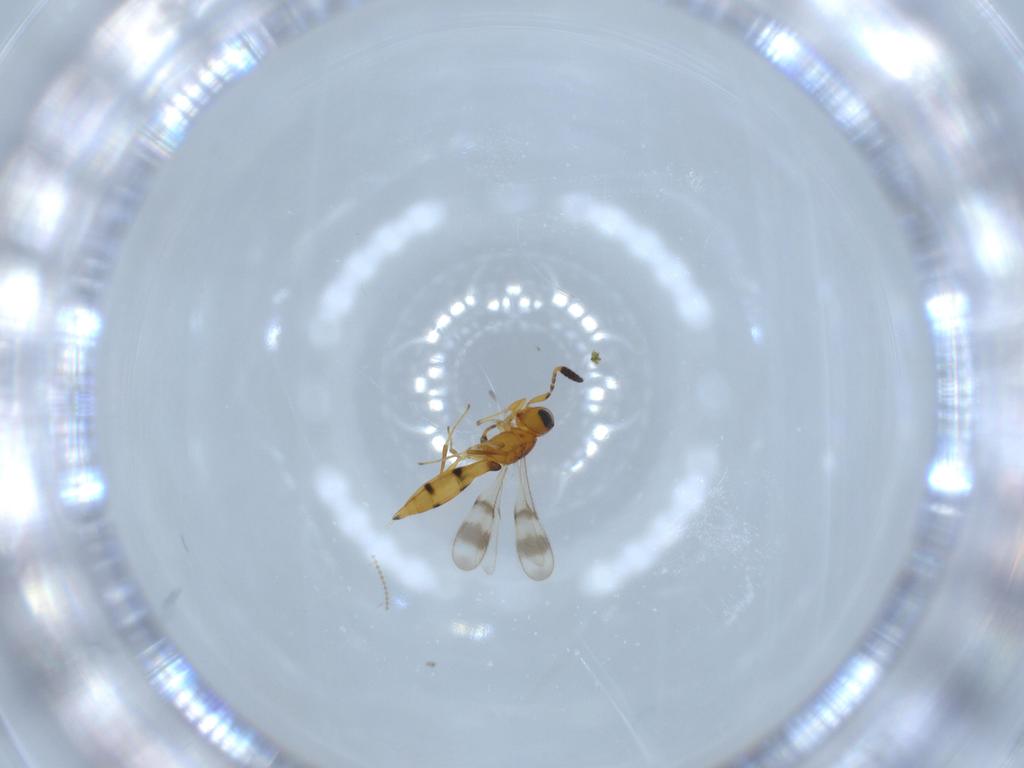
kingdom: Animalia
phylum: Arthropoda
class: Insecta
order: Hymenoptera
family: Scelionidae
